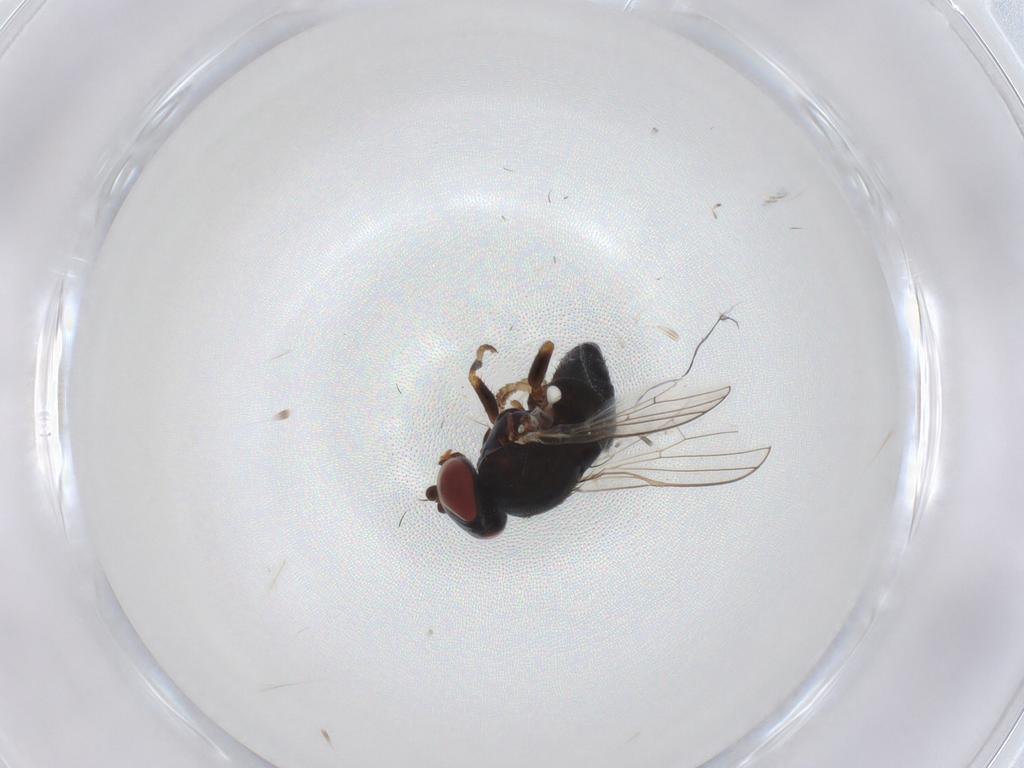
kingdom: Animalia
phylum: Arthropoda
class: Insecta
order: Diptera
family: Chamaemyiidae
